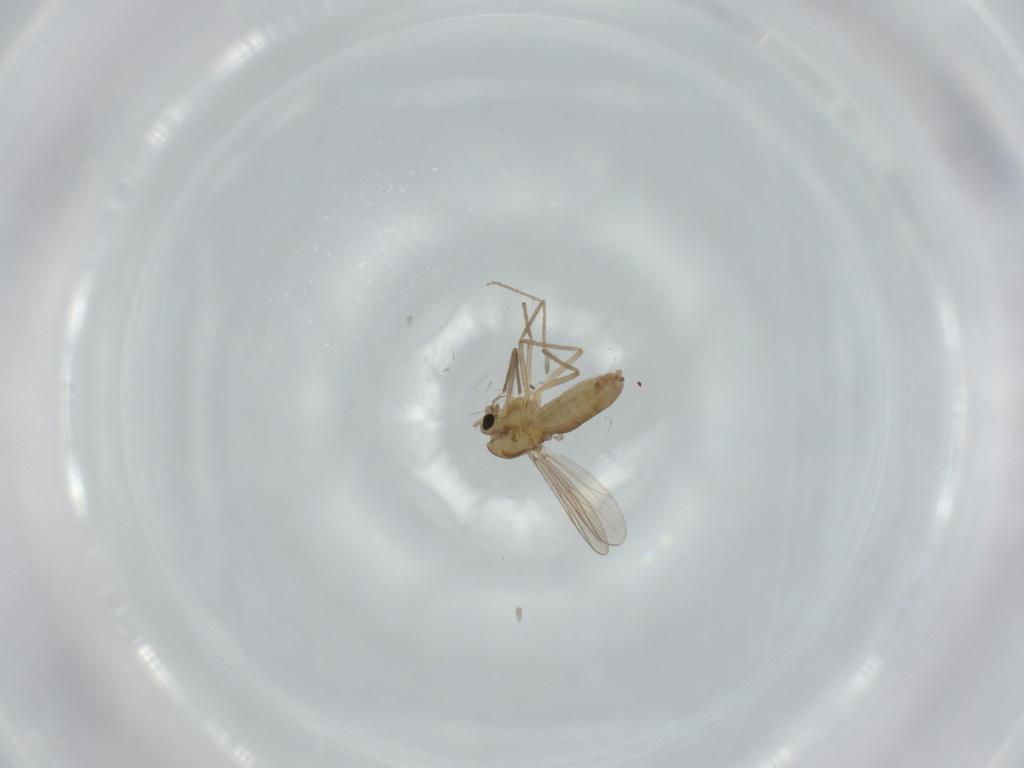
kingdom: Animalia
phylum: Arthropoda
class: Insecta
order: Diptera
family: Chironomidae
